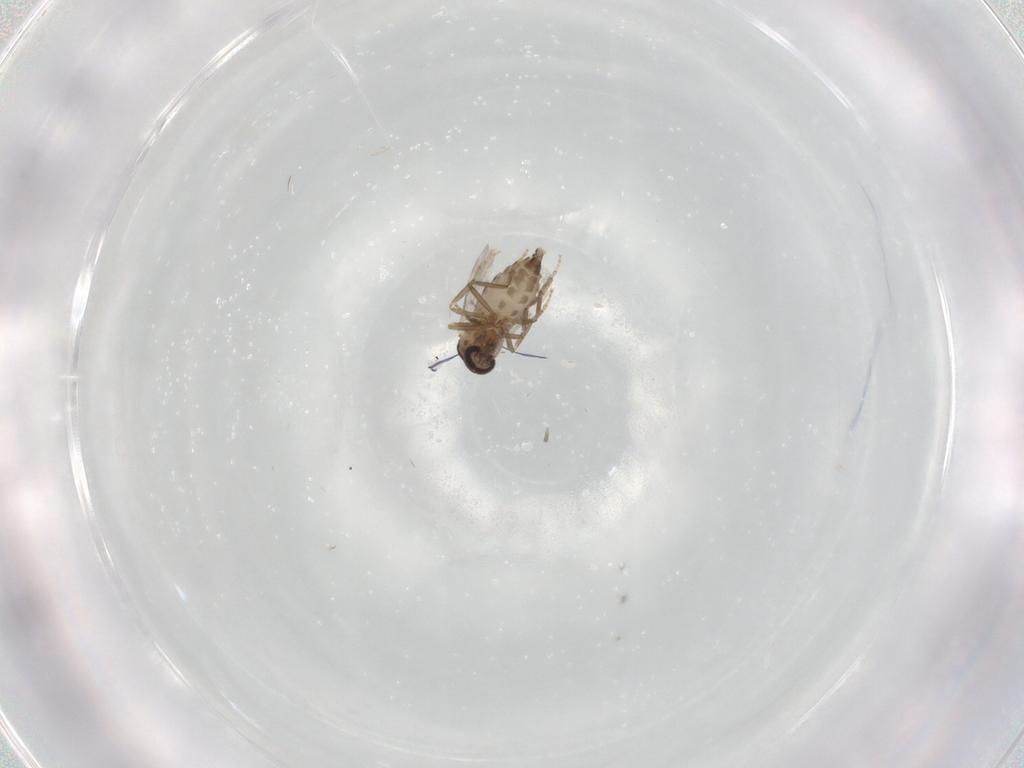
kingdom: Animalia
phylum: Arthropoda
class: Insecta
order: Diptera
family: Ceratopogonidae
